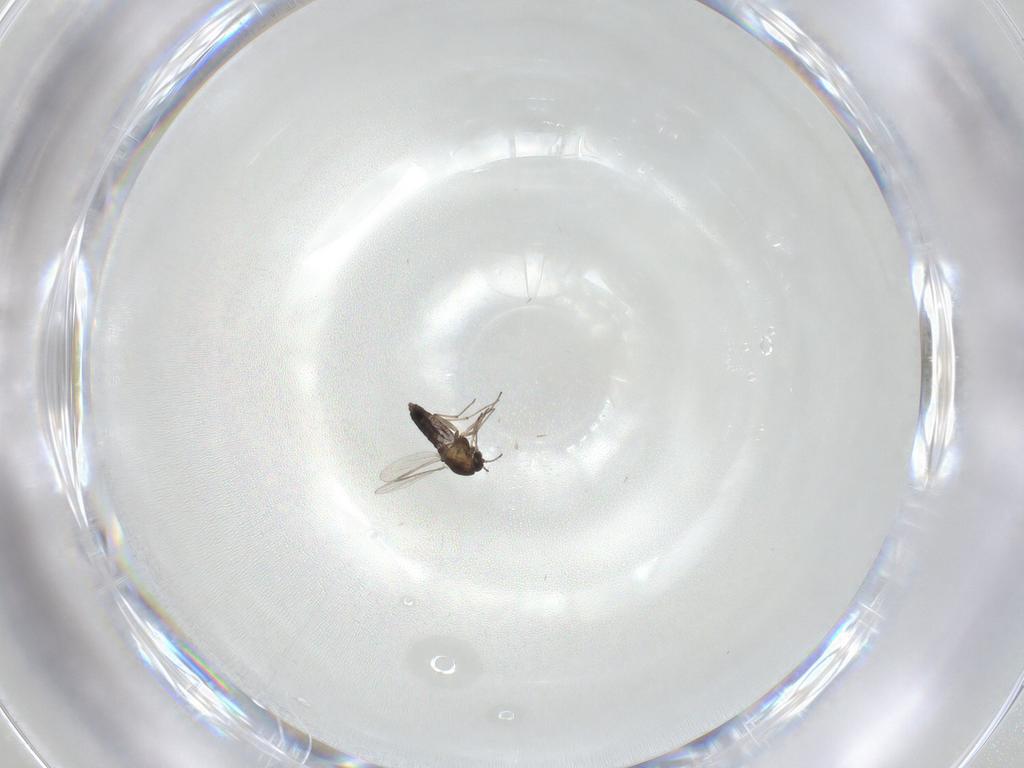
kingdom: Animalia
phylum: Arthropoda
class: Insecta
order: Diptera
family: Chironomidae
